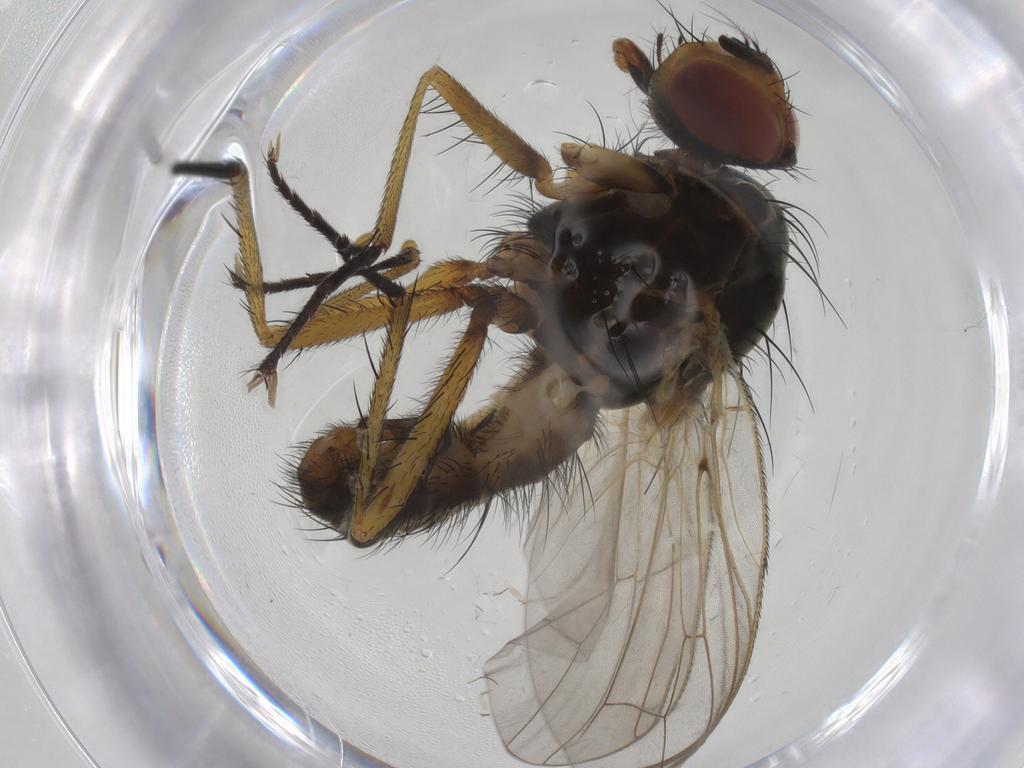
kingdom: Animalia
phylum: Arthropoda
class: Insecta
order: Diptera
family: Anthomyiidae
